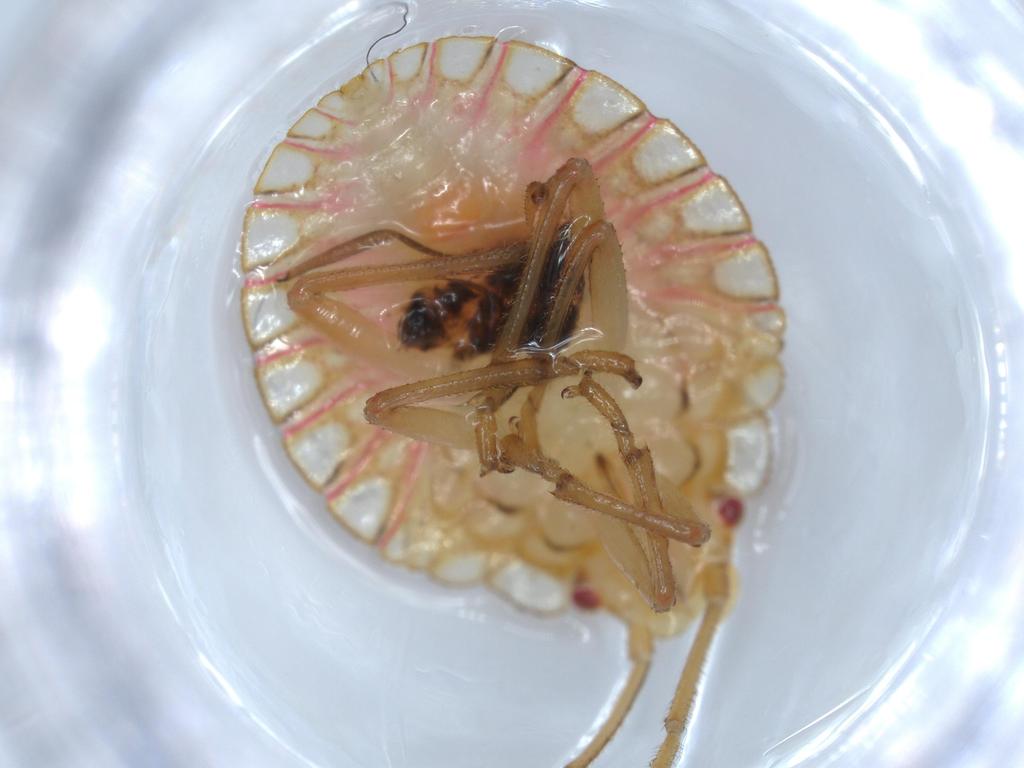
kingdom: Animalia
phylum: Arthropoda
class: Insecta
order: Hemiptera
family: Pentatomidae
